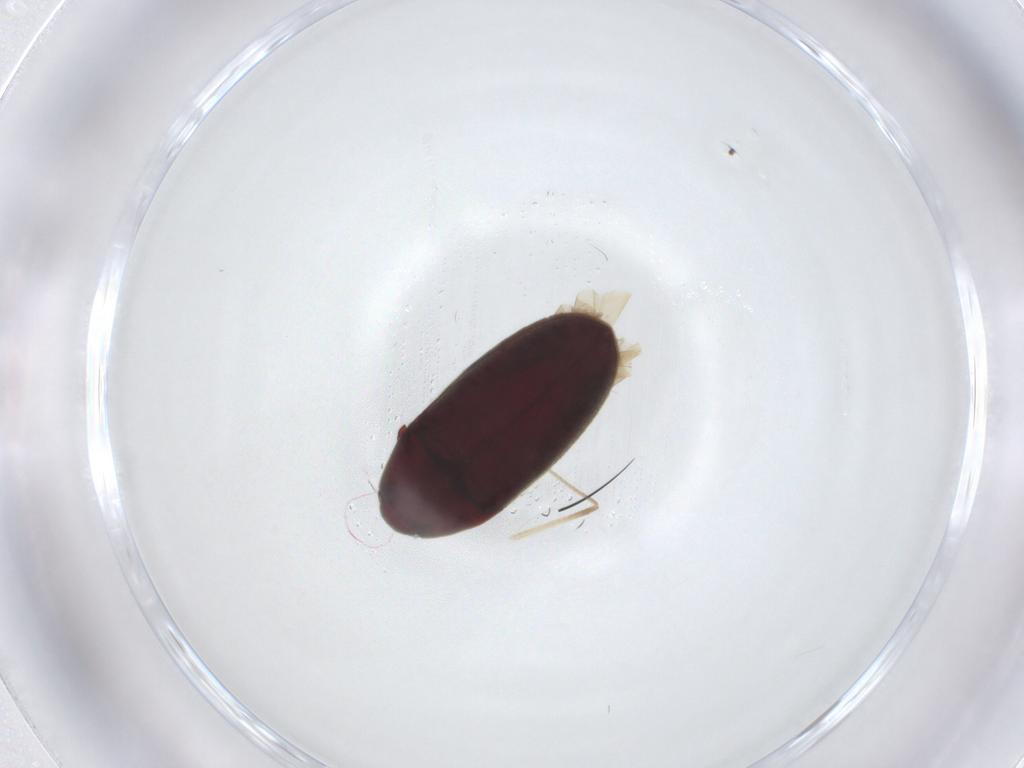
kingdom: Animalia
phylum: Arthropoda
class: Insecta
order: Coleoptera
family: Throscidae
